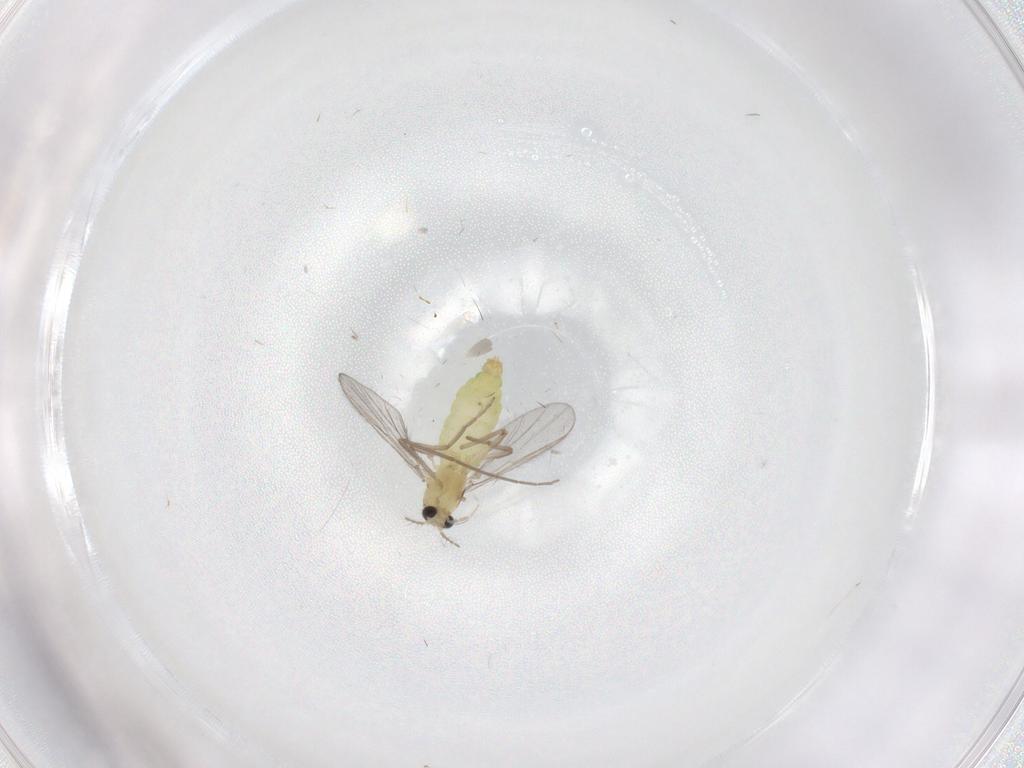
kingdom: Animalia
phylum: Arthropoda
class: Insecta
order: Diptera
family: Chironomidae
